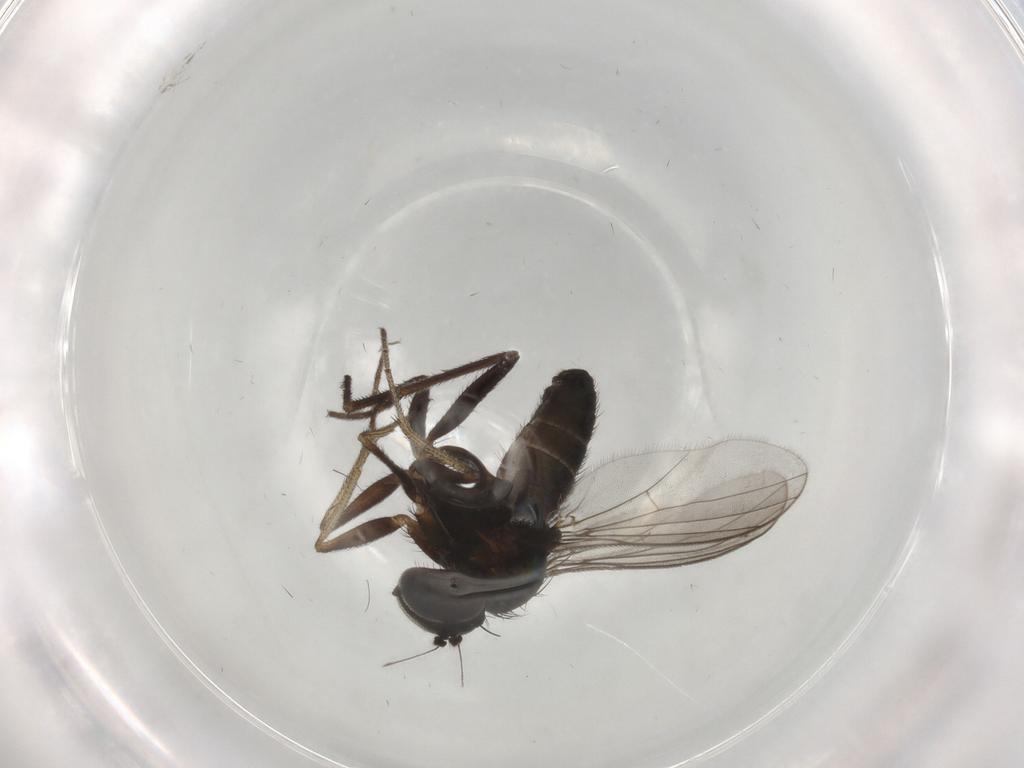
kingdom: Animalia
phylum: Arthropoda
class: Insecta
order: Diptera
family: Dolichopodidae
